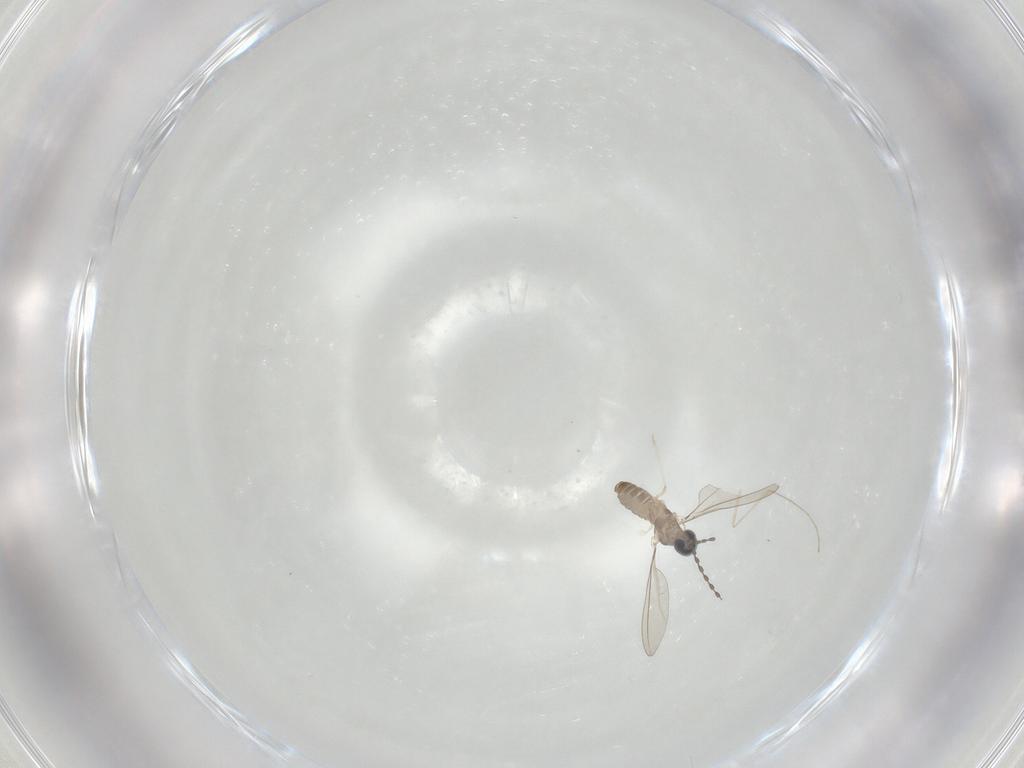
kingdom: Animalia
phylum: Arthropoda
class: Insecta
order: Diptera
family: Cecidomyiidae
